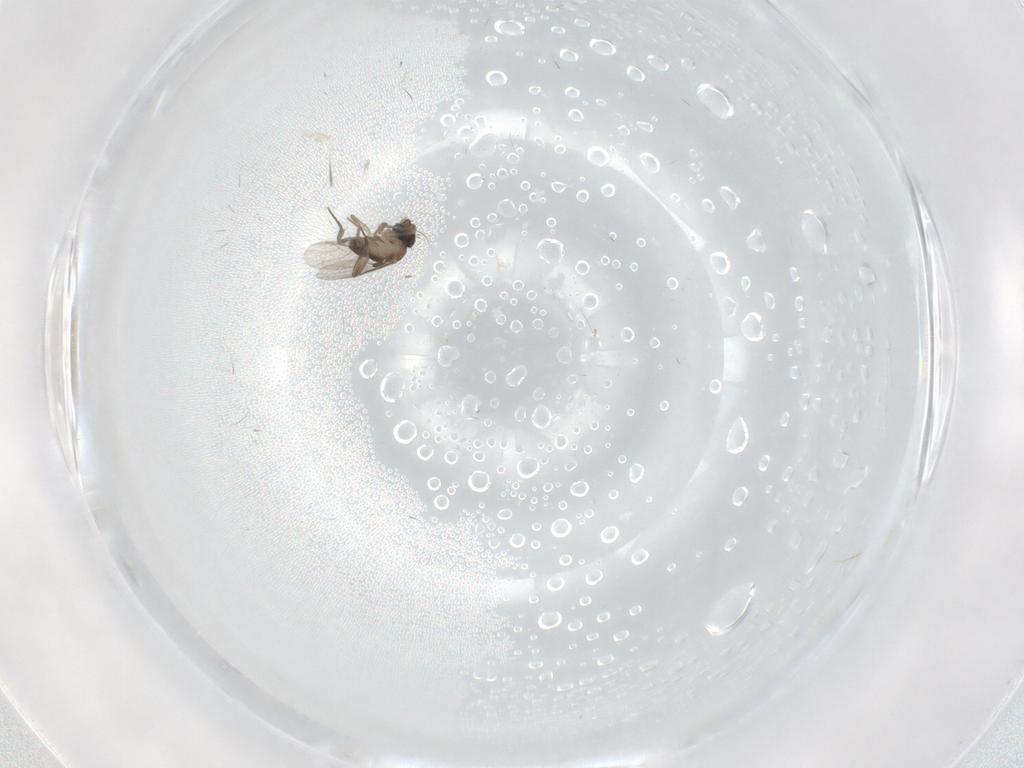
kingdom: Animalia
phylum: Arthropoda
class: Insecta
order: Diptera
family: Phoridae
